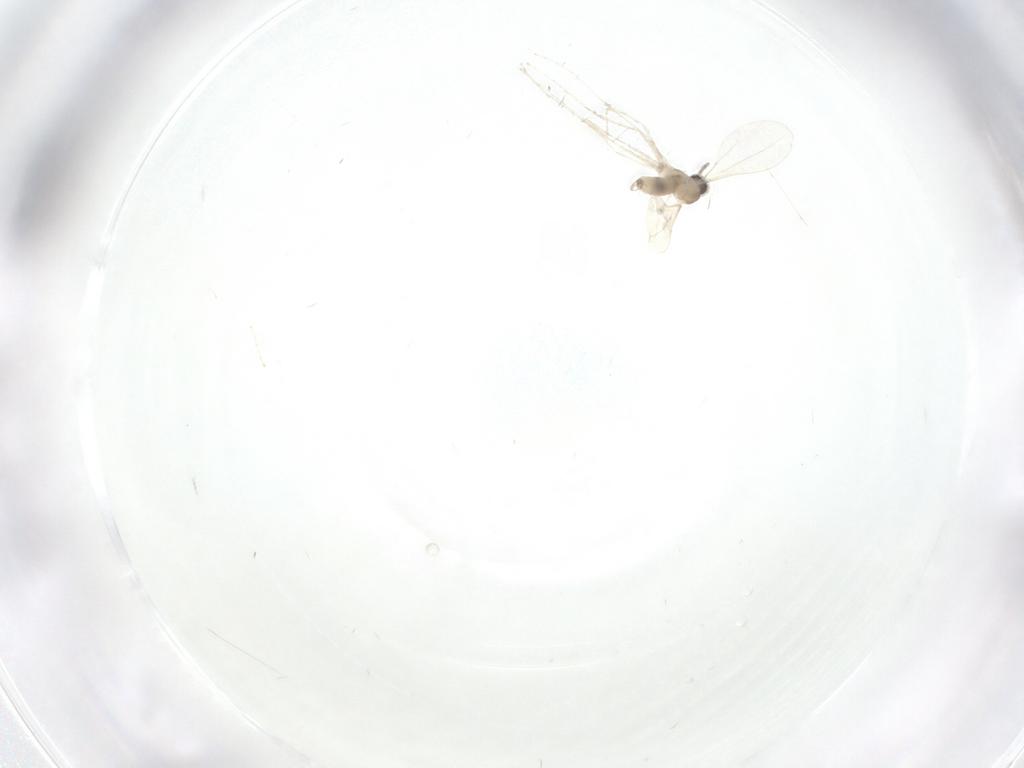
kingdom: Animalia
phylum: Arthropoda
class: Insecta
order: Diptera
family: Cecidomyiidae
